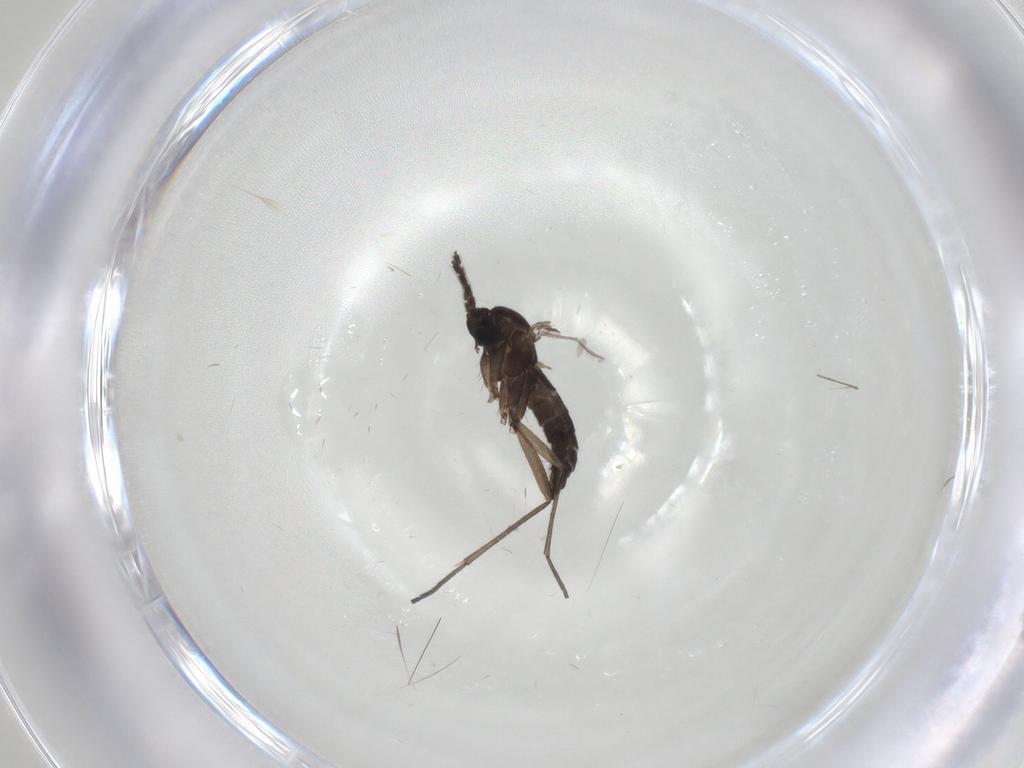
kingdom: Animalia
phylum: Arthropoda
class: Insecta
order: Diptera
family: Sciaridae
